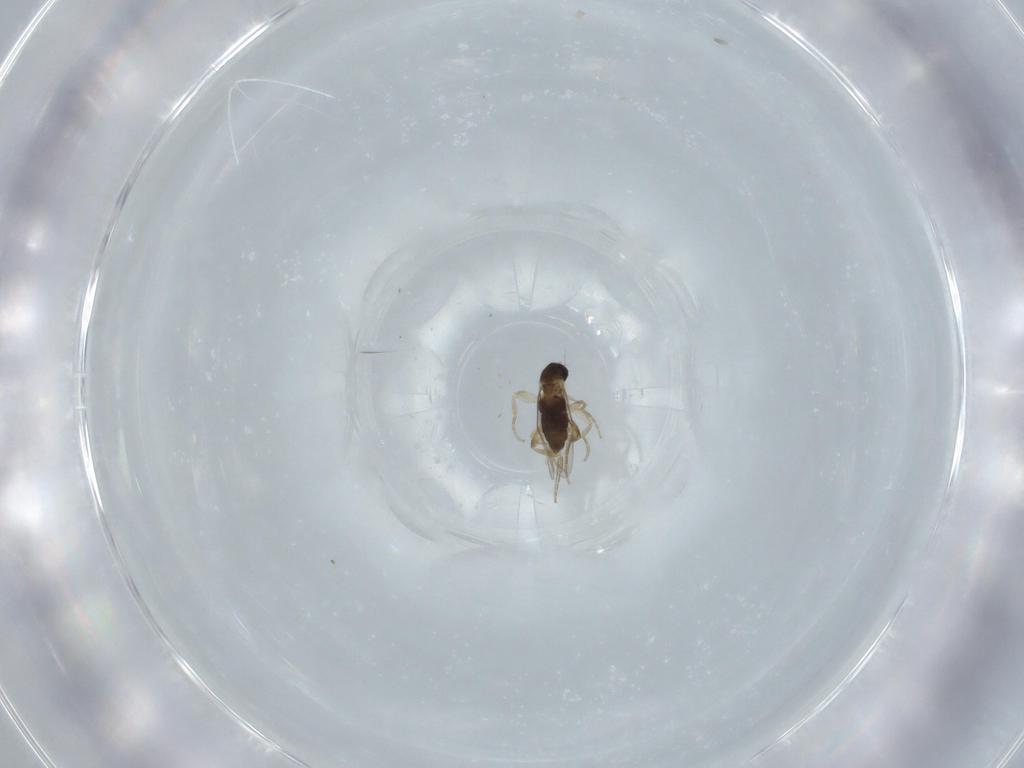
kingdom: Animalia
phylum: Arthropoda
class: Insecta
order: Diptera
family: Phoridae
